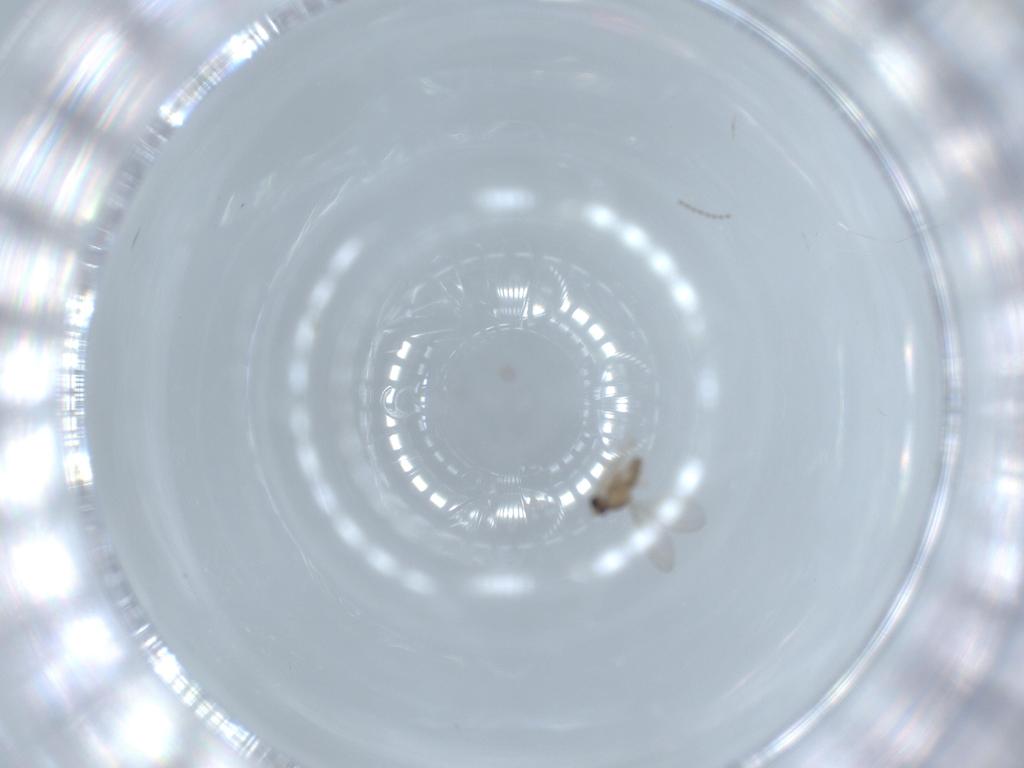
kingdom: Animalia
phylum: Arthropoda
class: Insecta
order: Diptera
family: Cecidomyiidae
